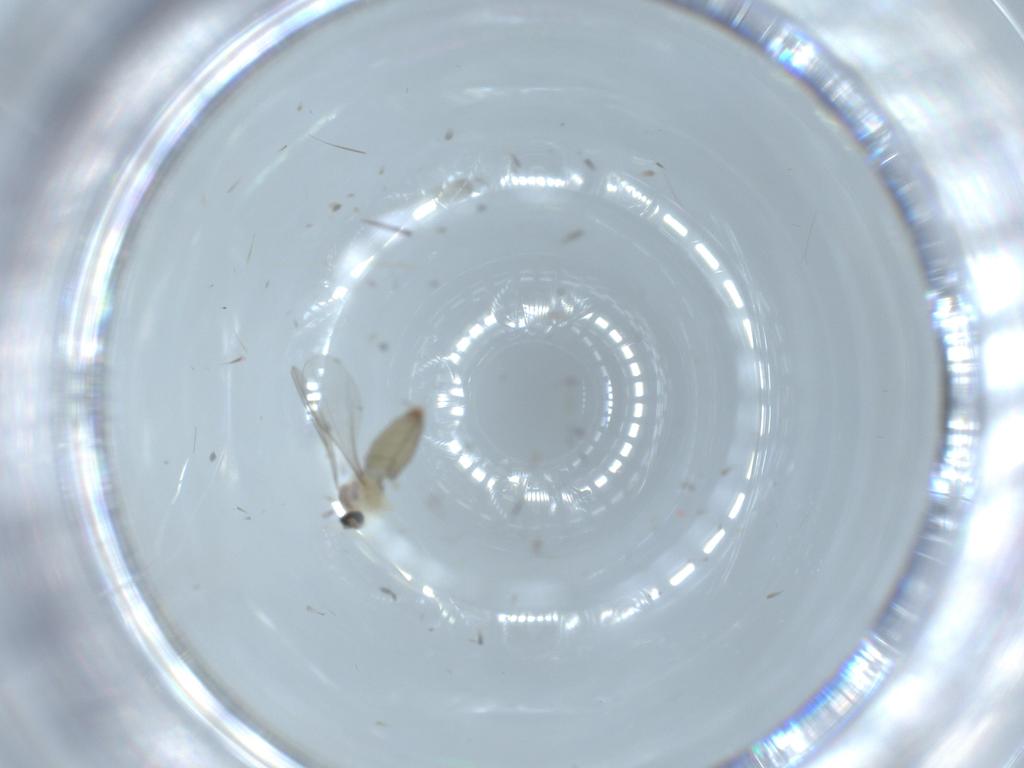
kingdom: Animalia
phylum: Arthropoda
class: Insecta
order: Diptera
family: Phoridae
